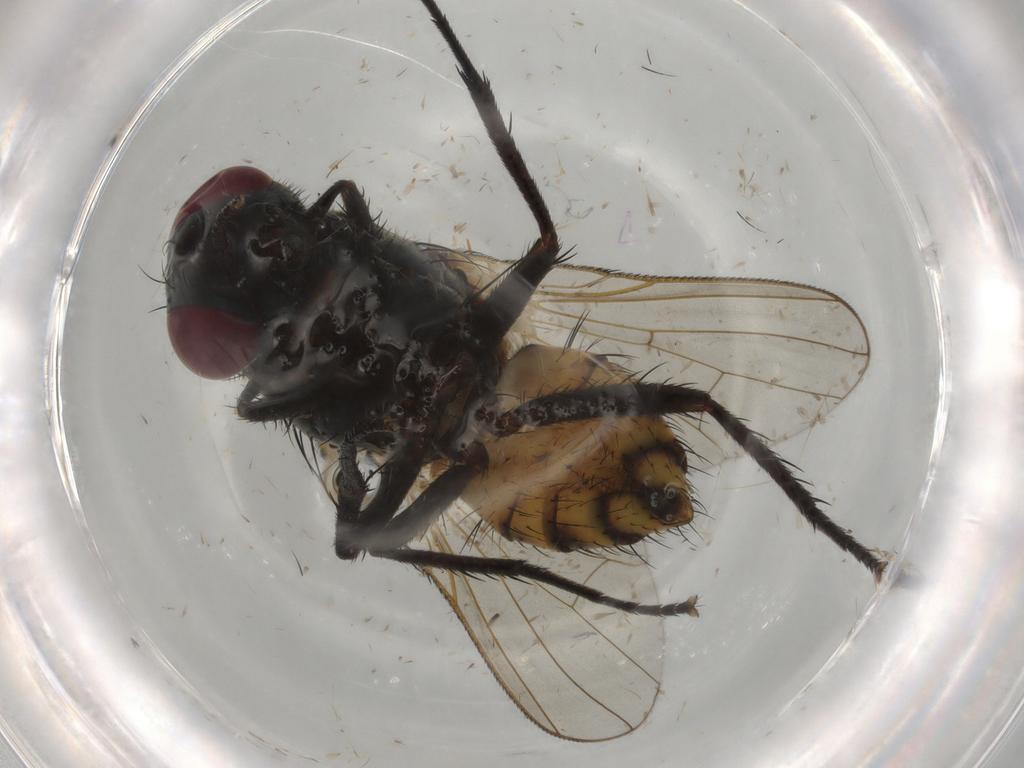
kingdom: Animalia
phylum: Arthropoda
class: Insecta
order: Diptera
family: Anthomyiidae
